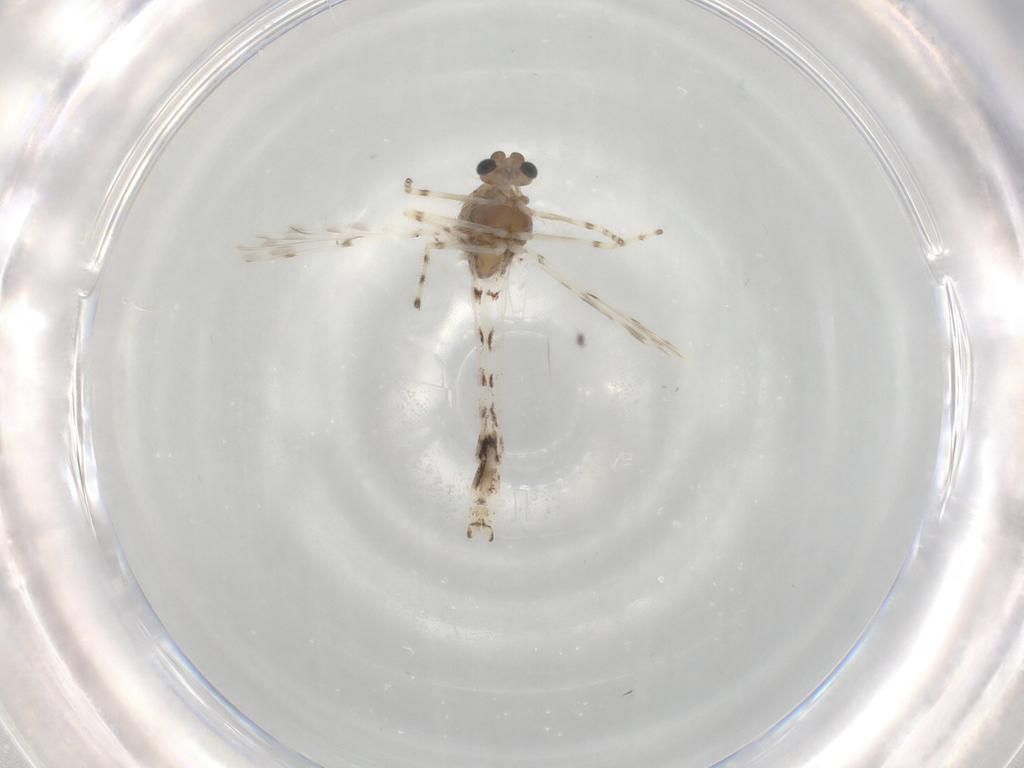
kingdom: Animalia
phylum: Arthropoda
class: Insecta
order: Diptera
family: Chironomidae
